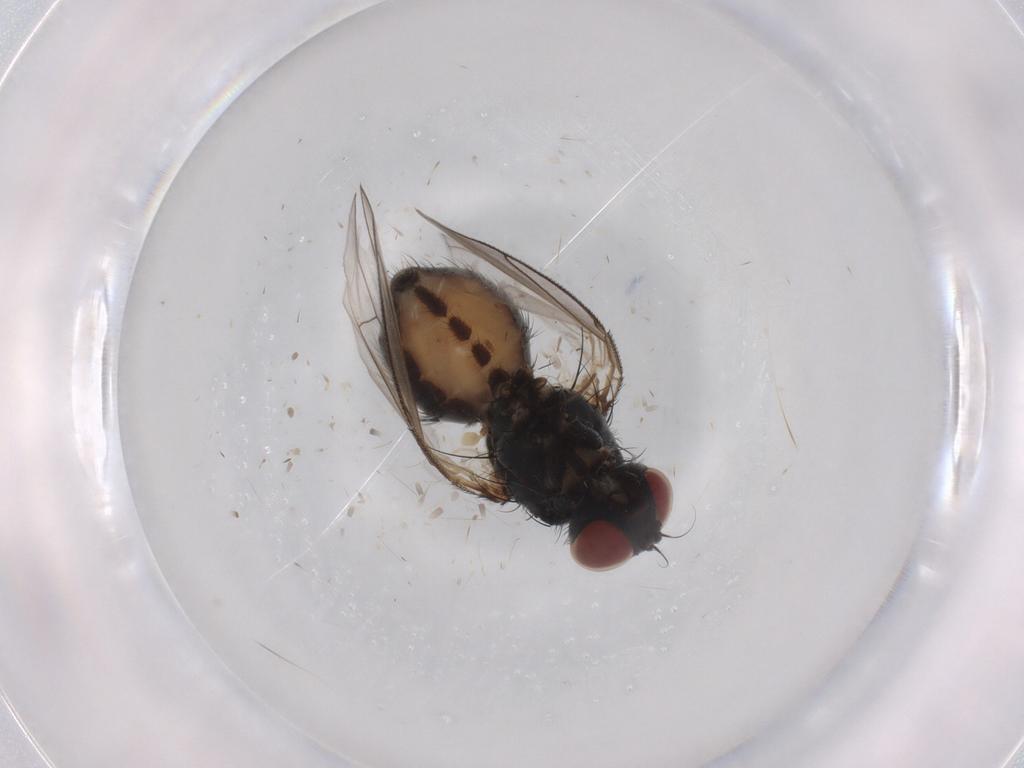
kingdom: Animalia
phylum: Arthropoda
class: Insecta
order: Diptera
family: Muscidae
